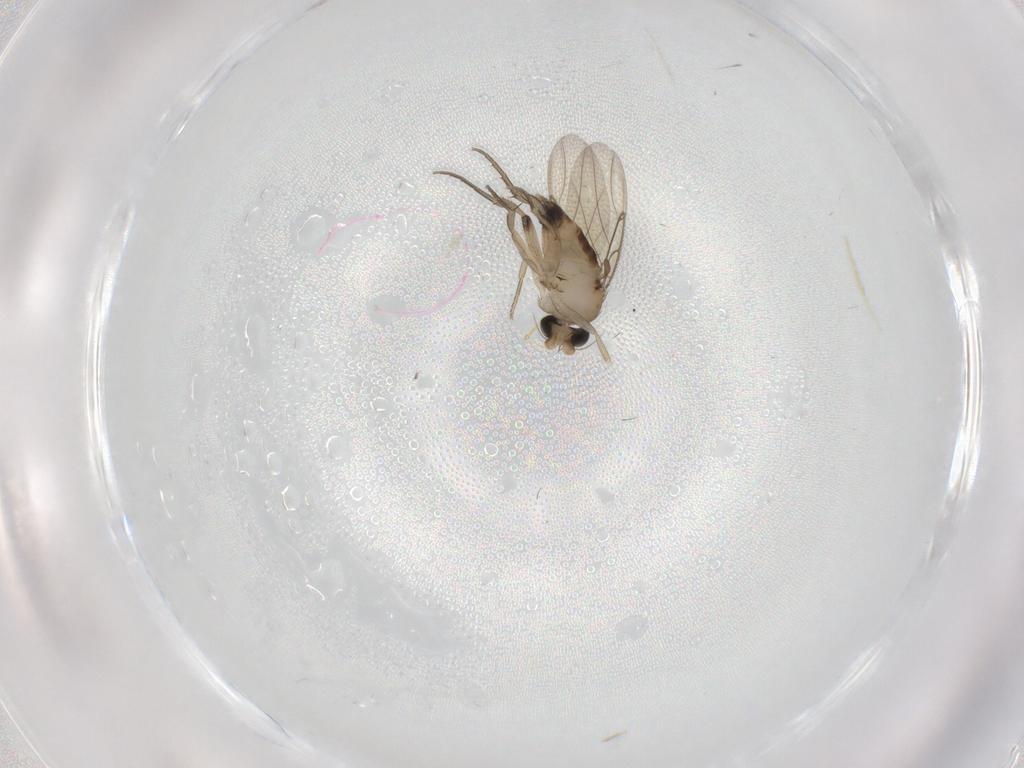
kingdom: Animalia
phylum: Arthropoda
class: Insecta
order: Diptera
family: Phoridae
